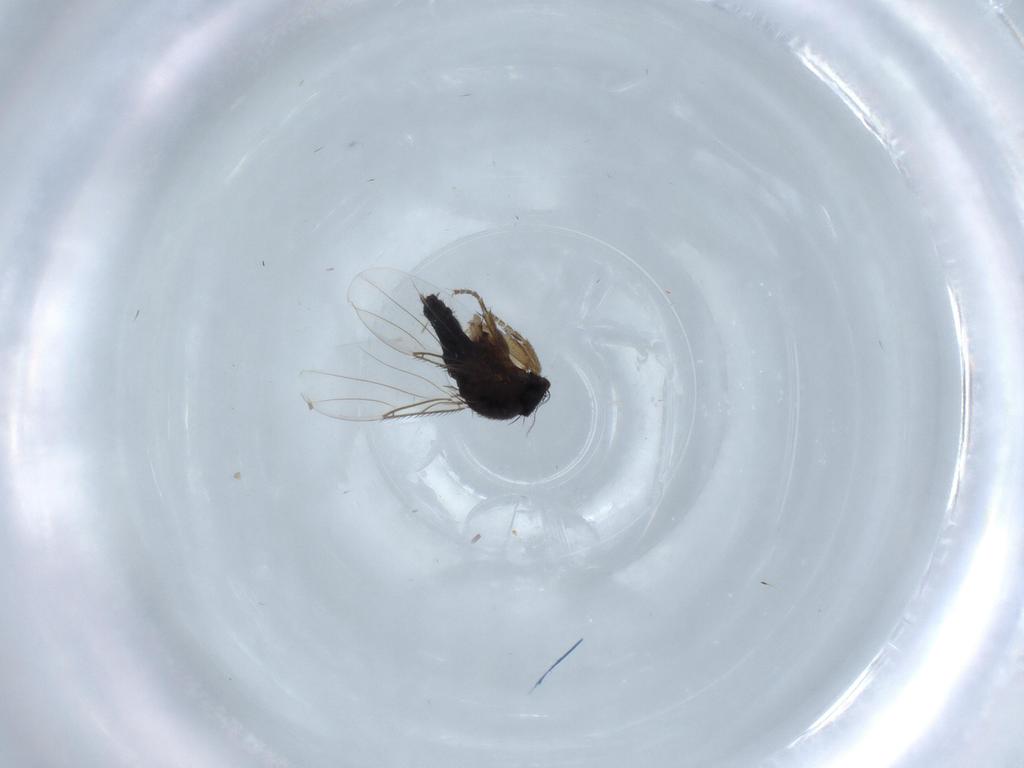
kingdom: Animalia
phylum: Arthropoda
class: Insecta
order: Diptera
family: Phoridae
